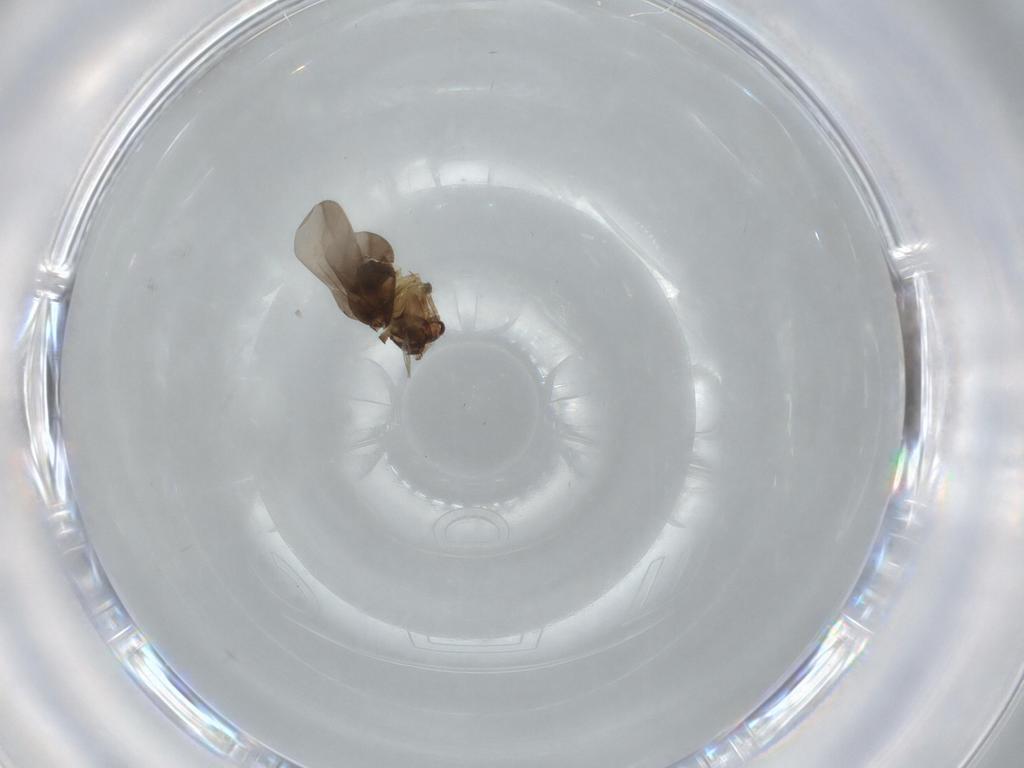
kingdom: Animalia
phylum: Arthropoda
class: Insecta
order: Hemiptera
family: Ceratocombidae
